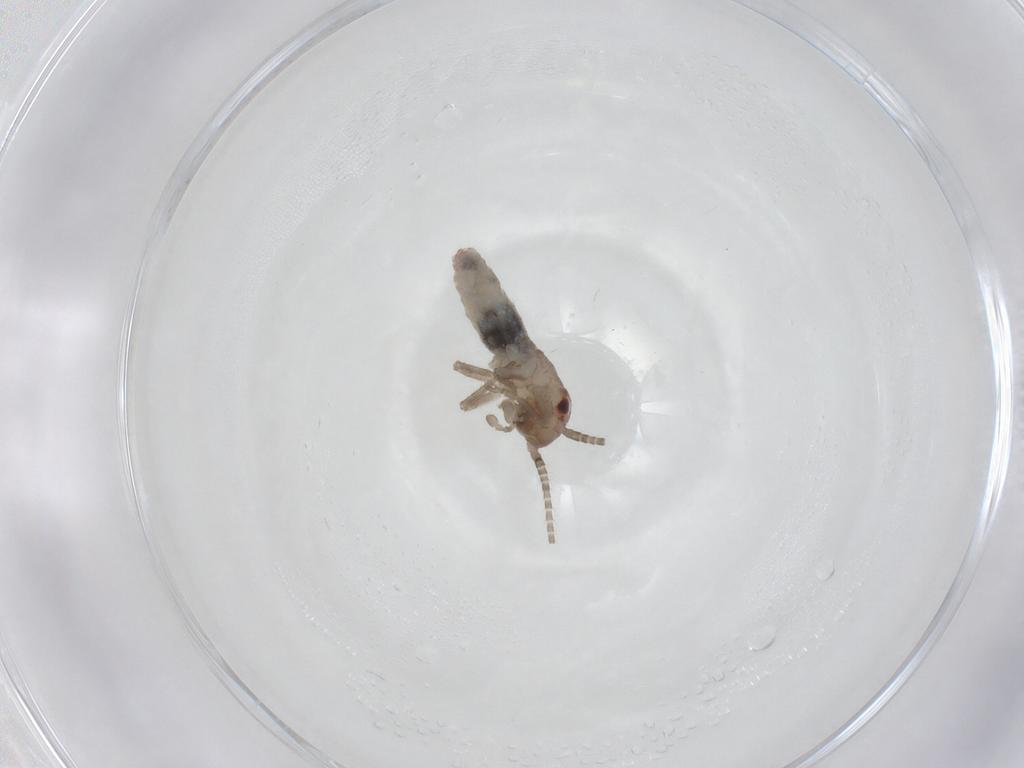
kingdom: Animalia
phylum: Arthropoda
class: Insecta
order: Orthoptera
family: Mogoplistidae
